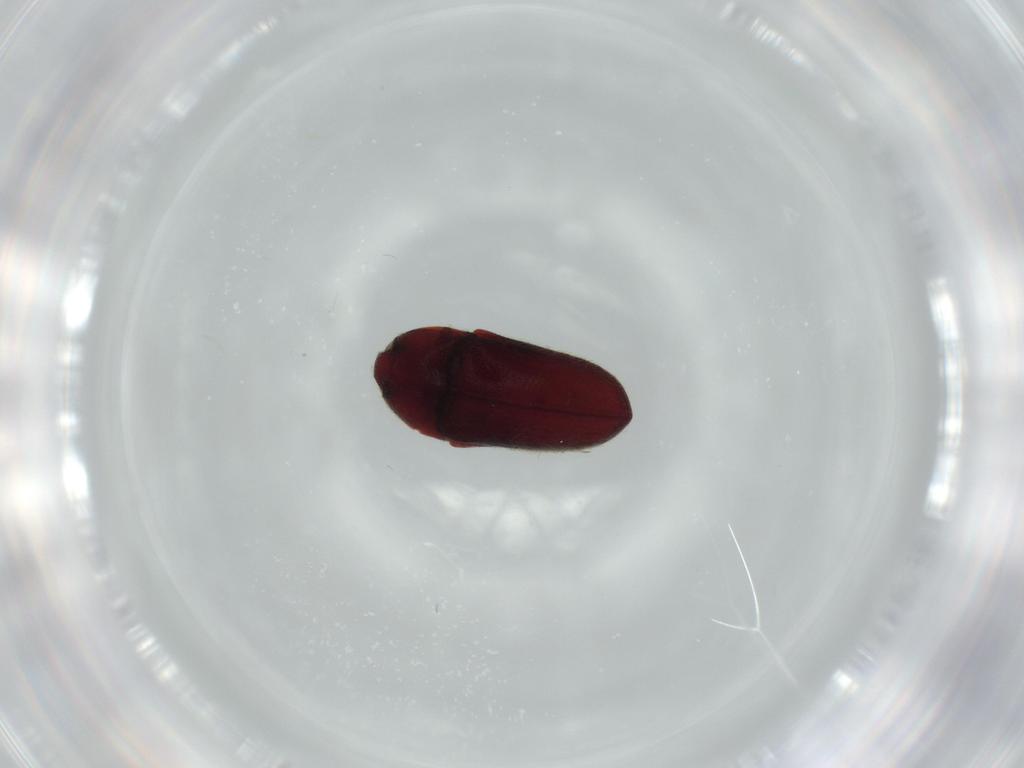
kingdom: Animalia
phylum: Arthropoda
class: Insecta
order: Coleoptera
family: Throscidae
